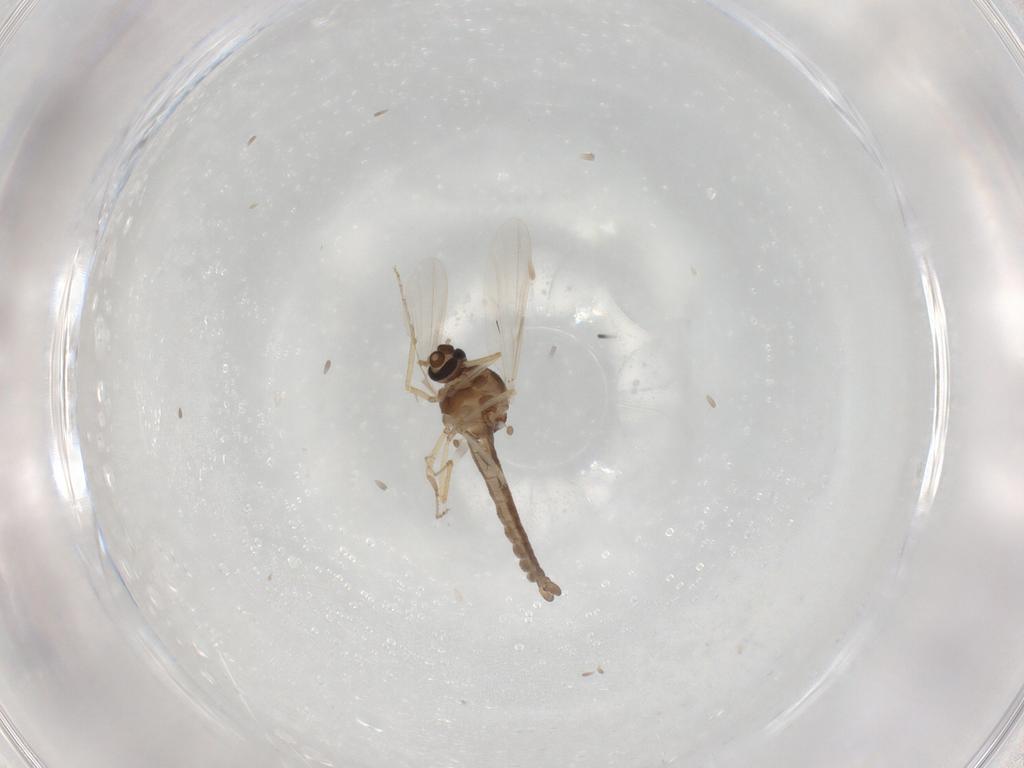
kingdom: Animalia
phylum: Arthropoda
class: Insecta
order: Diptera
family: Ceratopogonidae
